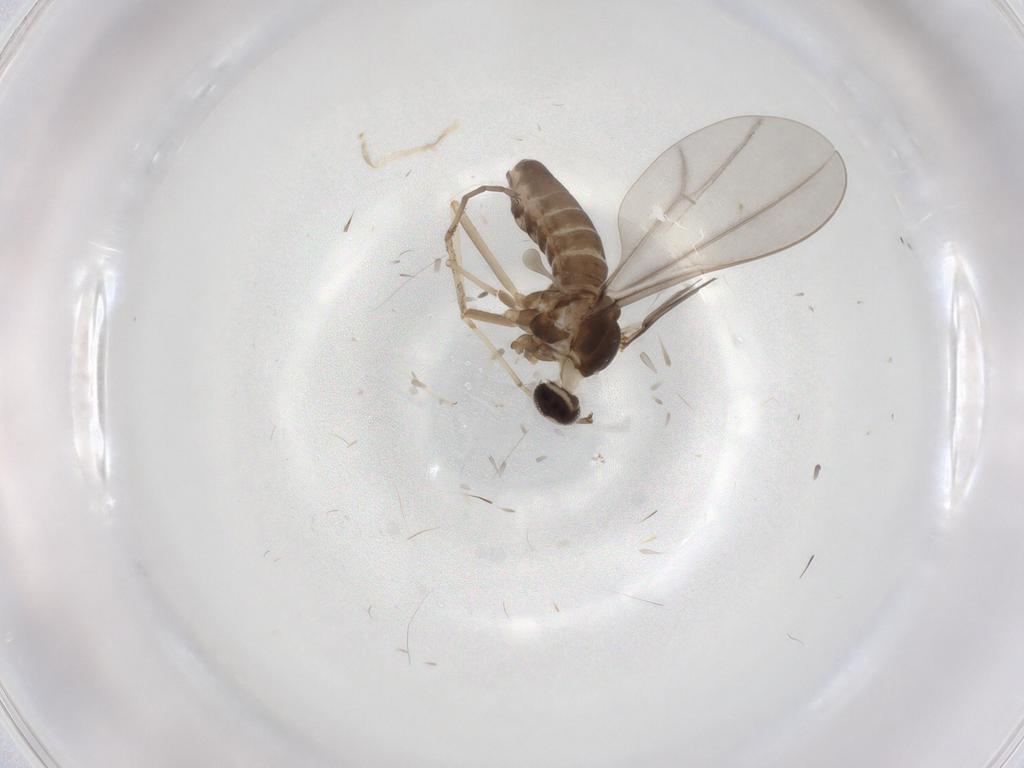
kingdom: Animalia
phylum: Arthropoda
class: Insecta
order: Diptera
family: Cecidomyiidae
